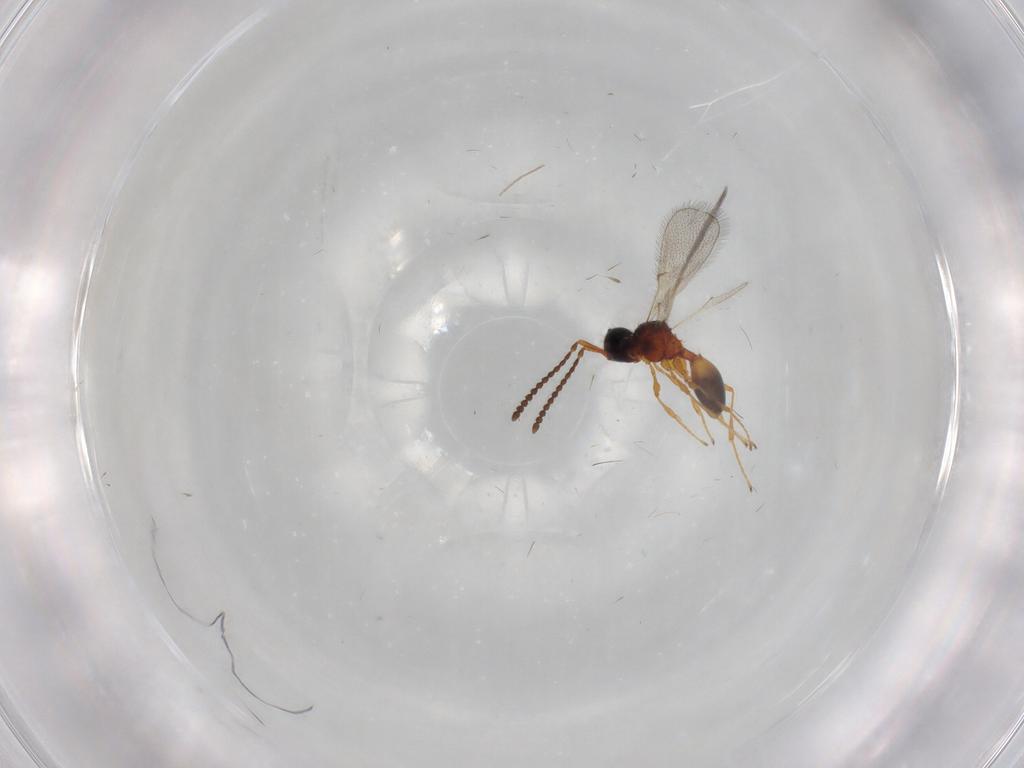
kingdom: Animalia
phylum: Arthropoda
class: Insecta
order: Hymenoptera
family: Diapriidae
